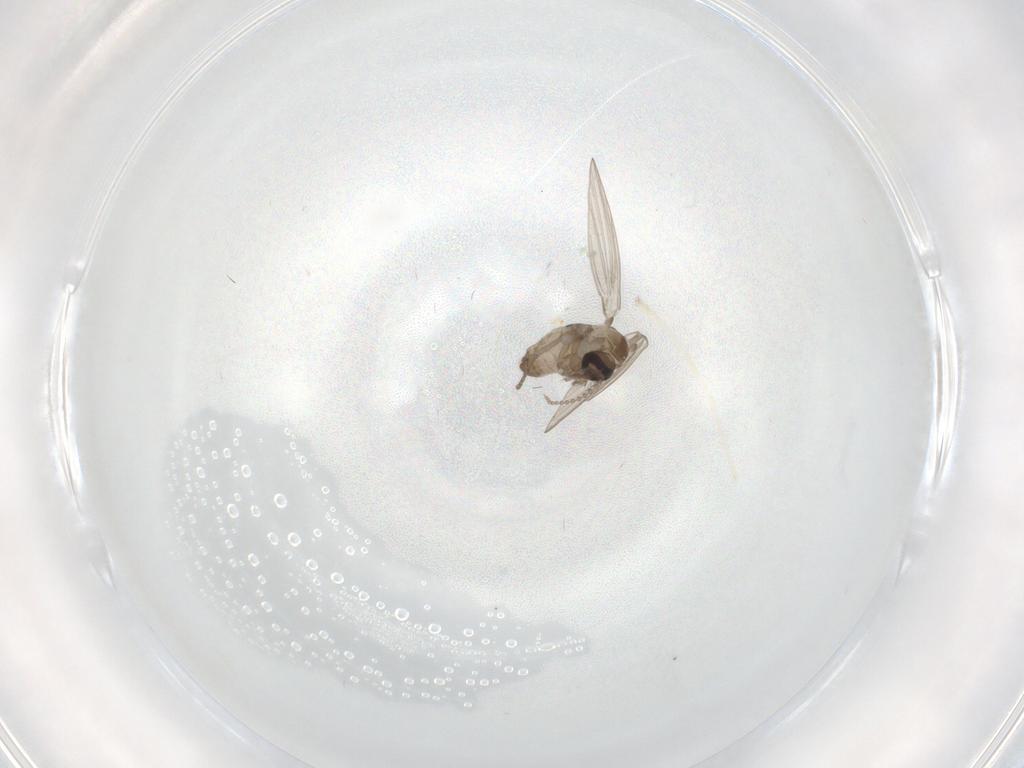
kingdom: Animalia
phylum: Arthropoda
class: Insecta
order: Diptera
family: Psychodidae
